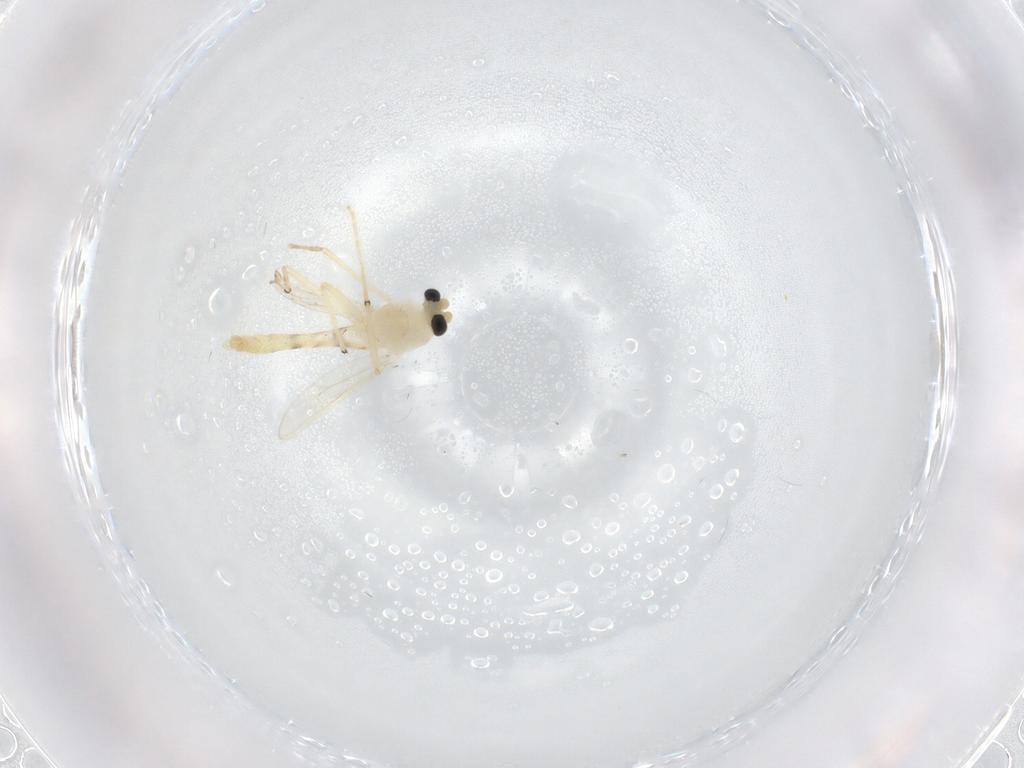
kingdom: Animalia
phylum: Arthropoda
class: Insecta
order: Diptera
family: Chironomidae
